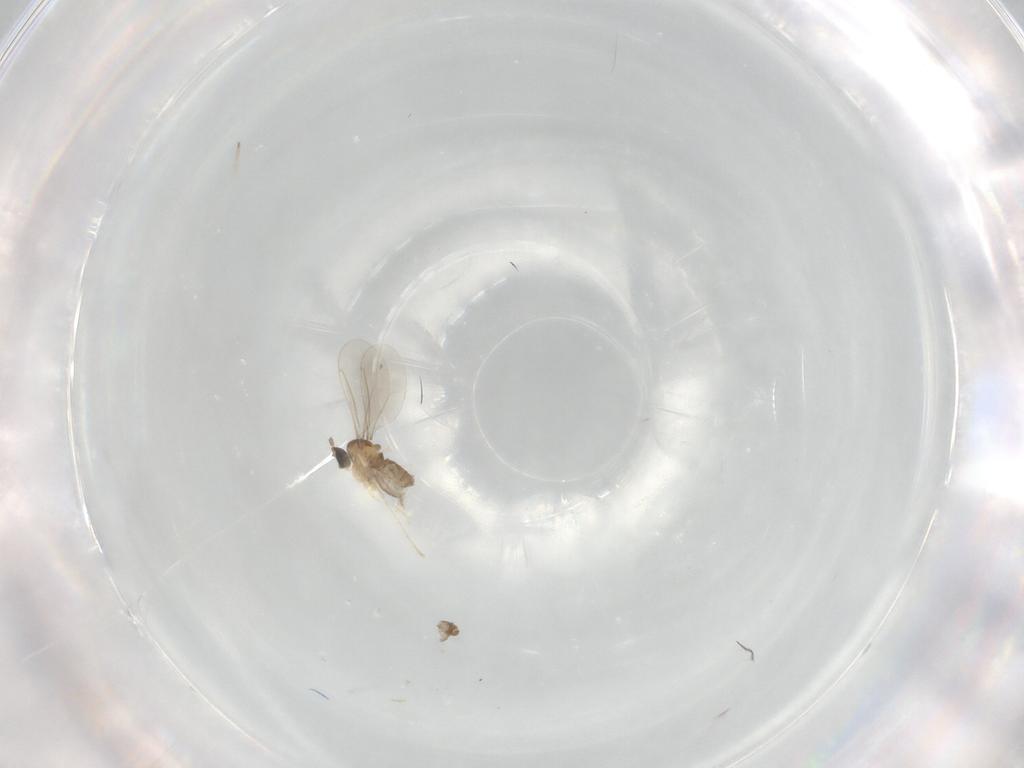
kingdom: Animalia
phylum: Arthropoda
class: Insecta
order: Diptera
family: Cecidomyiidae
